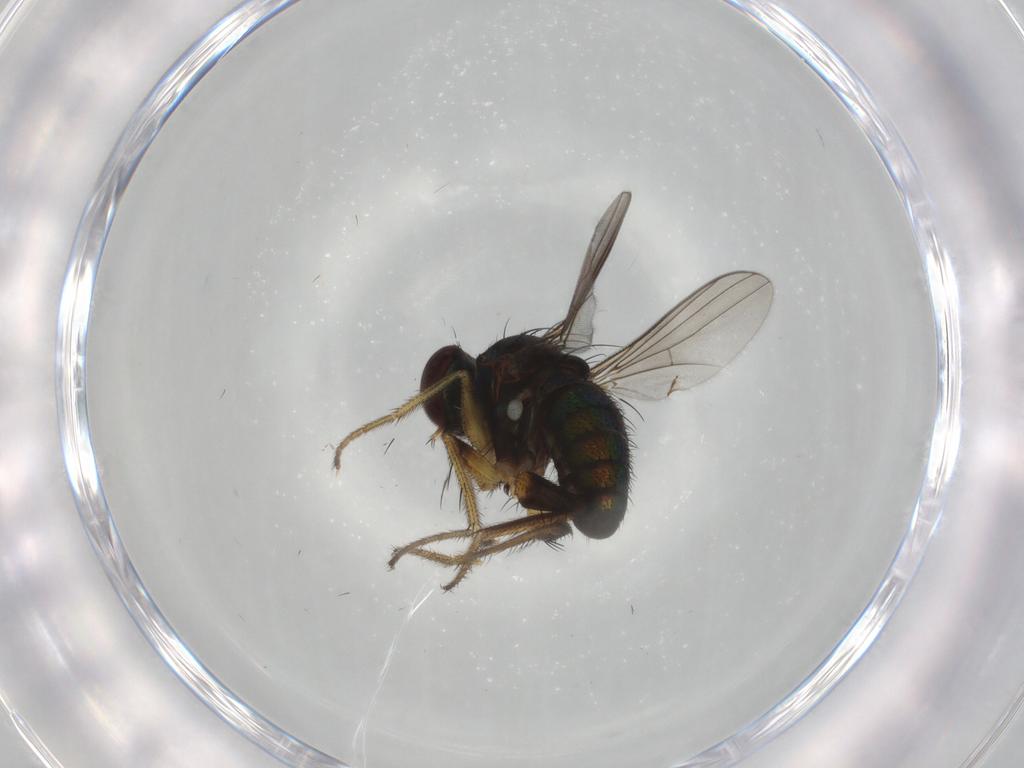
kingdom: Animalia
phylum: Arthropoda
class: Insecta
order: Diptera
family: Dolichopodidae
